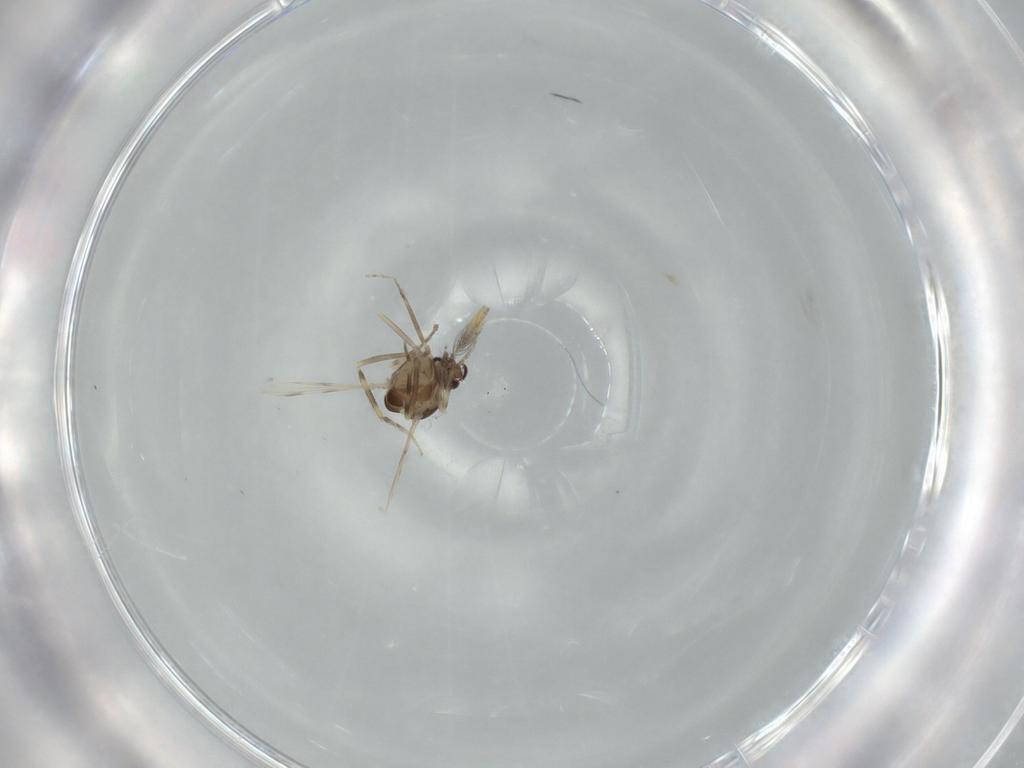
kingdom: Animalia
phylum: Arthropoda
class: Insecta
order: Diptera
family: Ceratopogonidae
